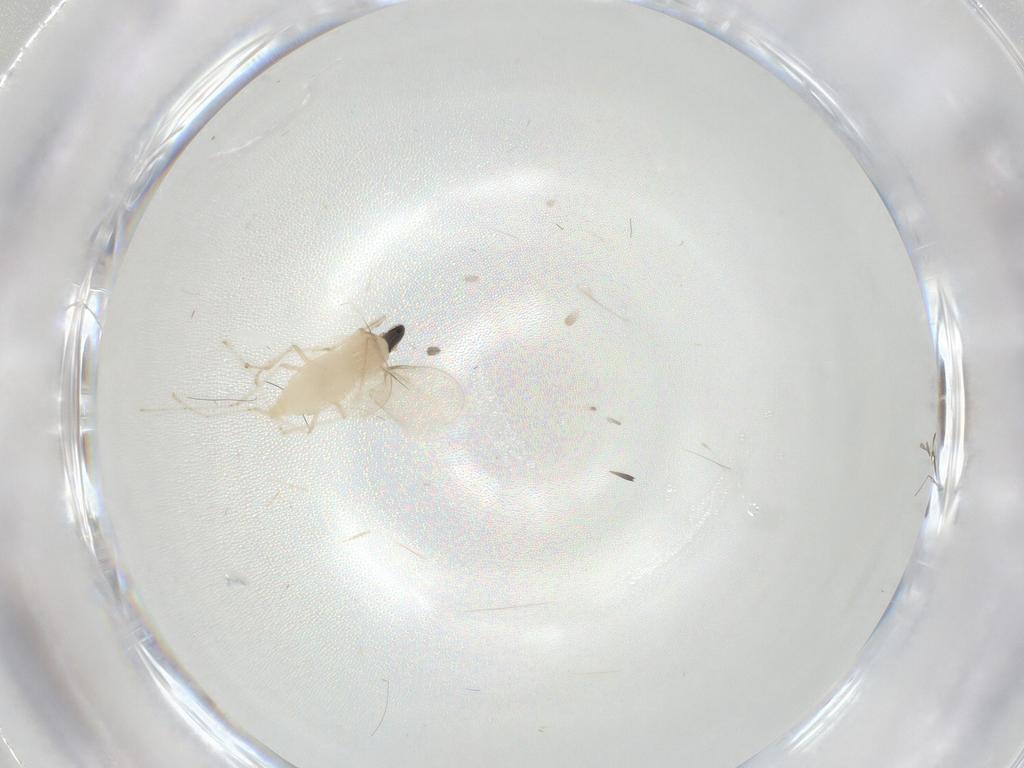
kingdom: Animalia
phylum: Arthropoda
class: Insecta
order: Diptera
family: Cecidomyiidae
